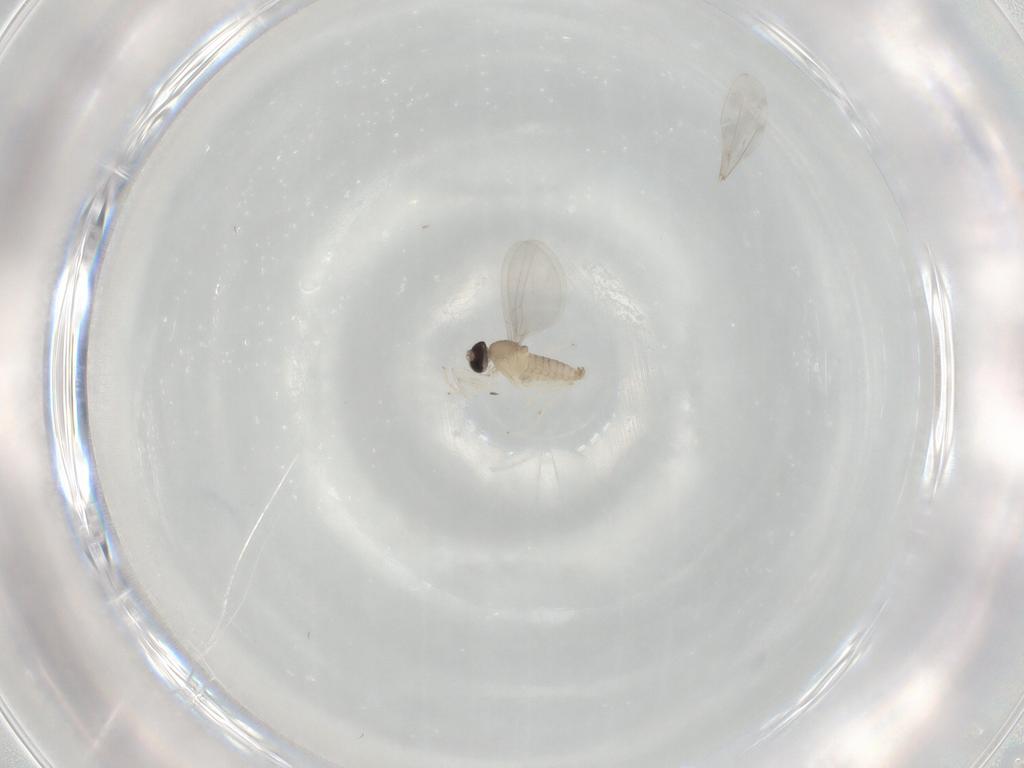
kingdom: Animalia
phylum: Arthropoda
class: Insecta
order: Diptera
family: Cecidomyiidae
